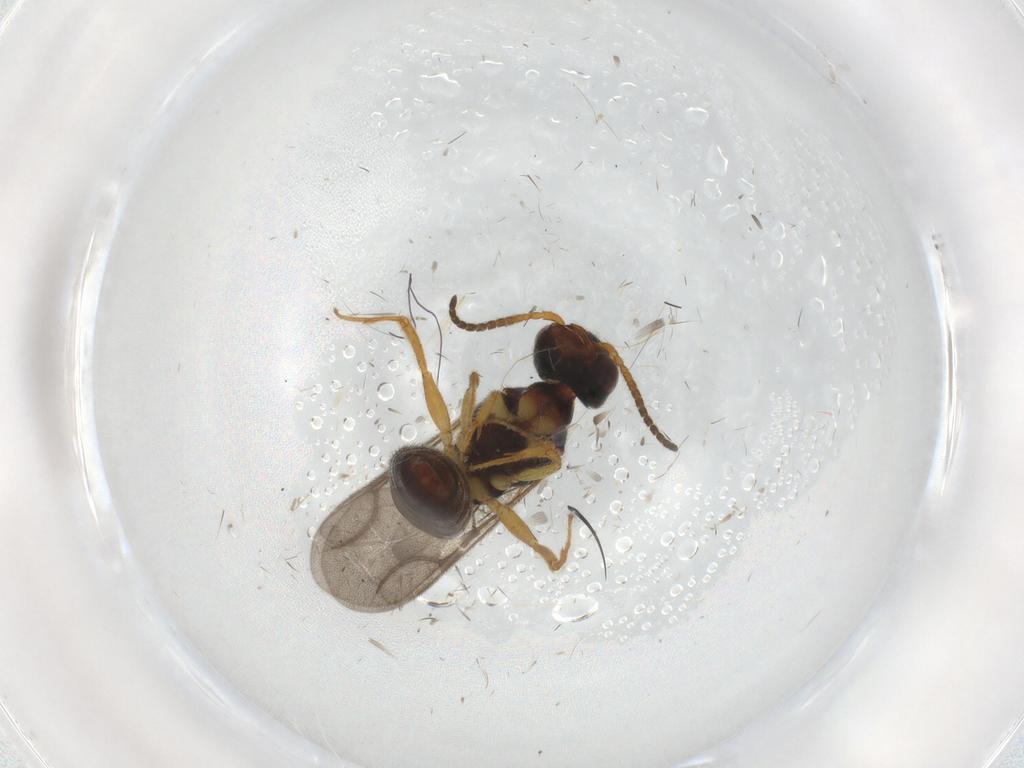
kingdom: Animalia
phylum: Arthropoda
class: Insecta
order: Hymenoptera
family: Bethylidae
